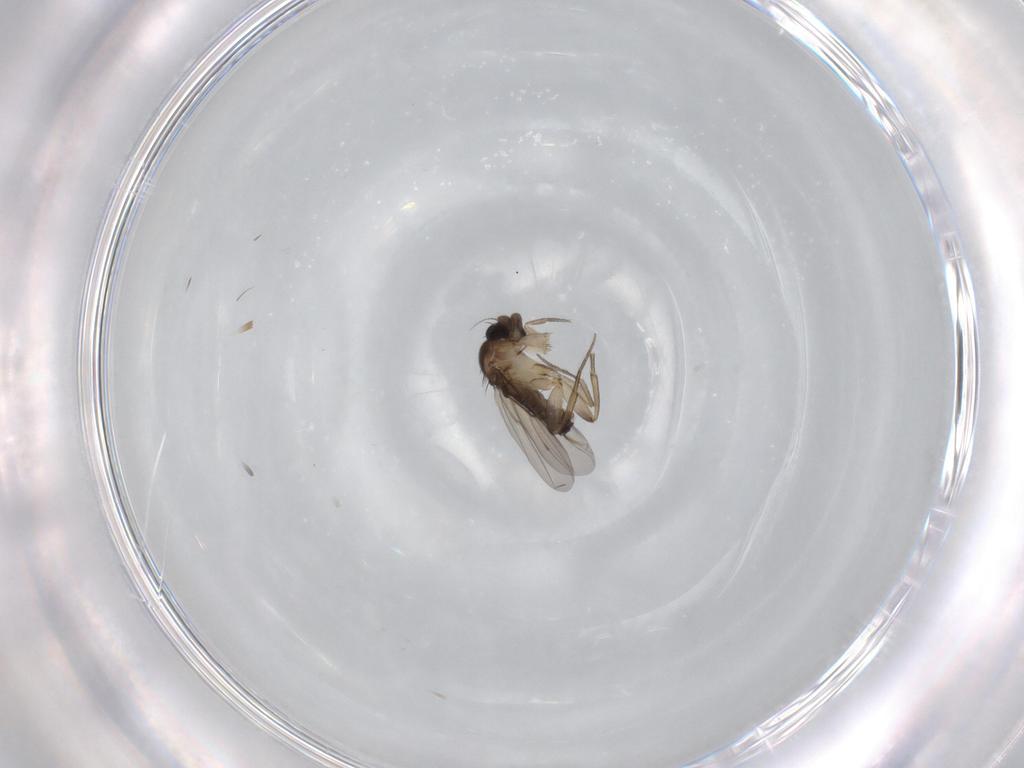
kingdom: Animalia
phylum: Arthropoda
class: Insecta
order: Diptera
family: Phoridae
